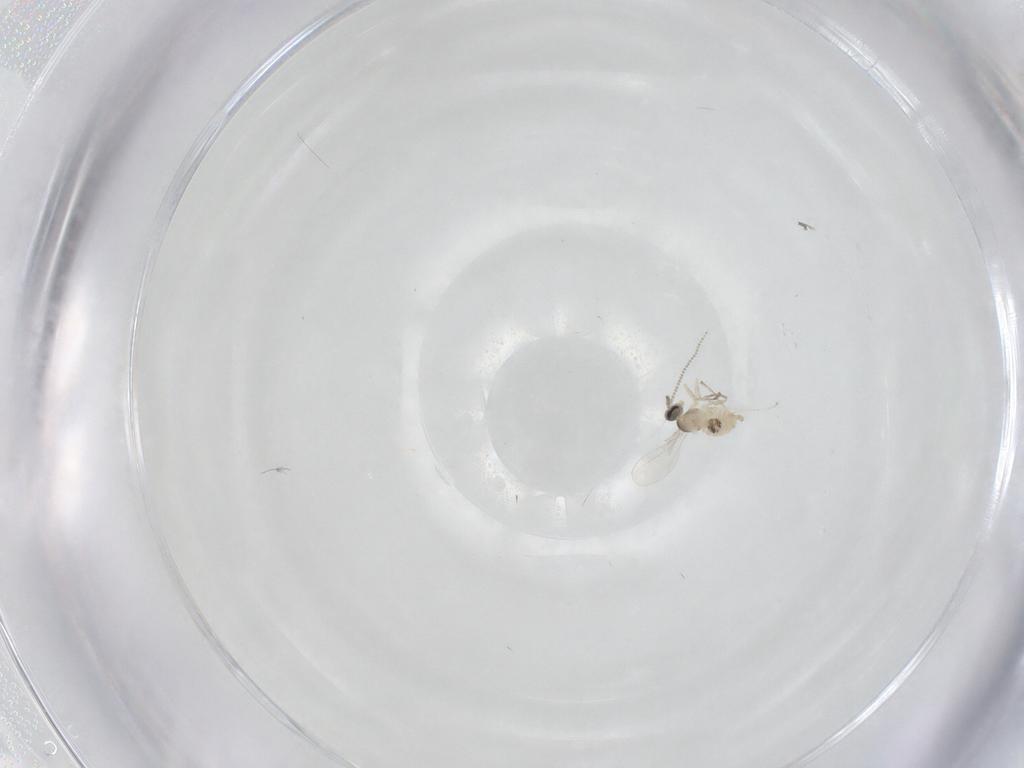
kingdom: Animalia
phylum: Arthropoda
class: Insecta
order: Diptera
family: Cecidomyiidae
